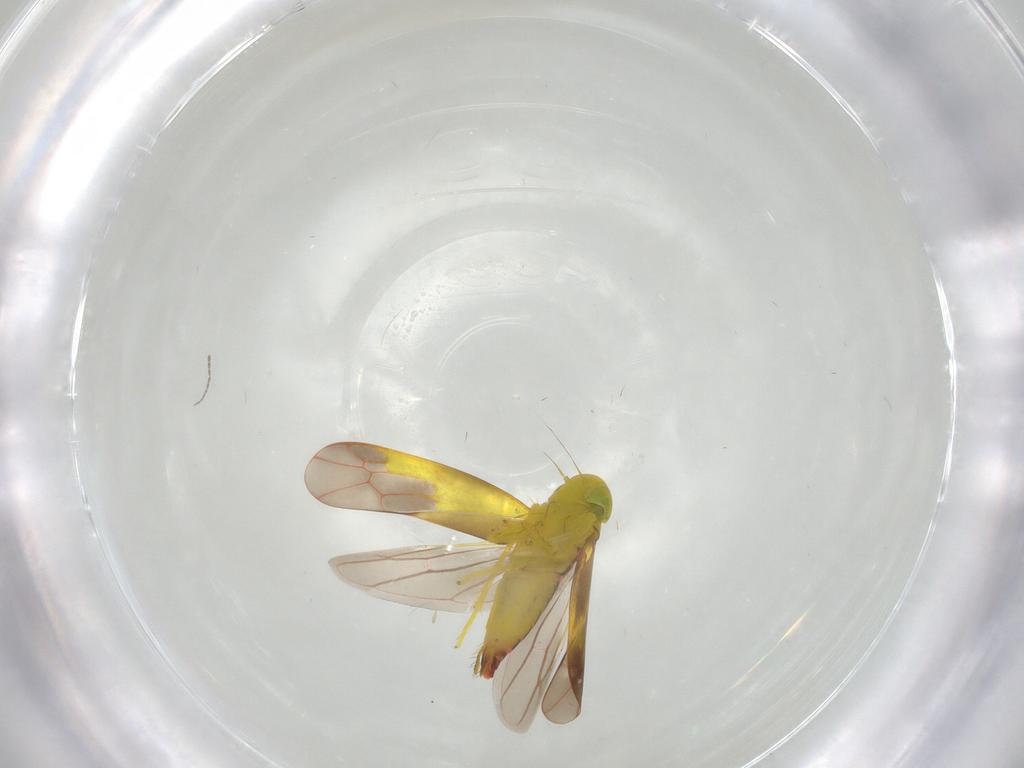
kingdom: Animalia
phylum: Arthropoda
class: Insecta
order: Hemiptera
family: Cicadellidae
